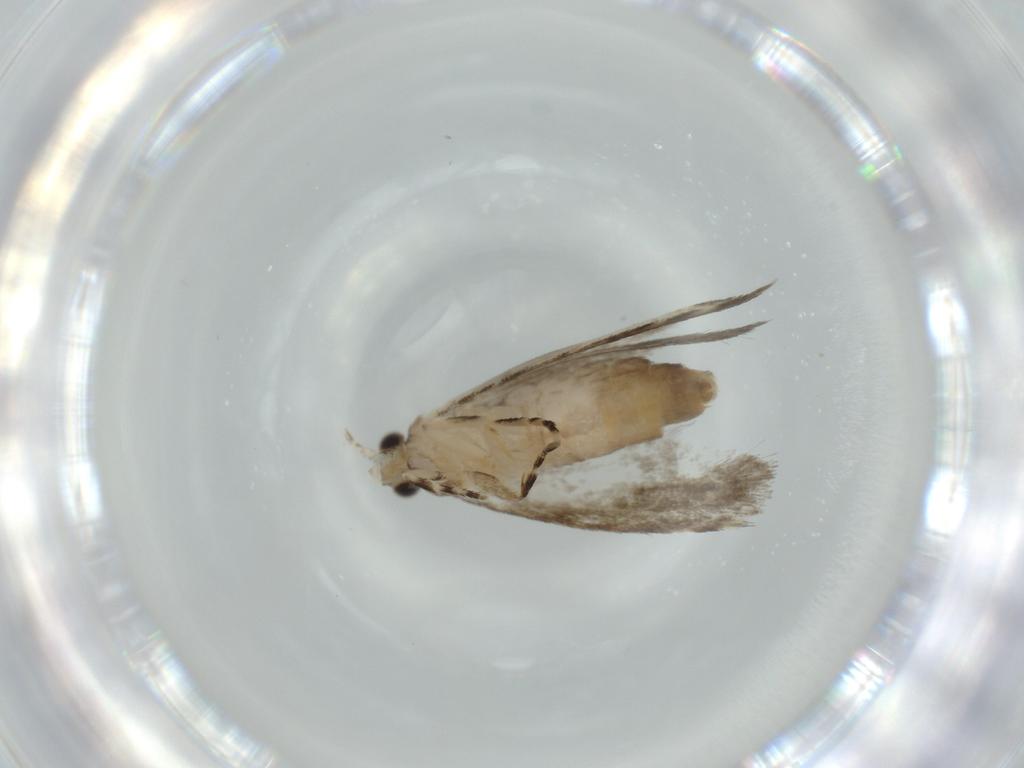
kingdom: Animalia
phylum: Arthropoda
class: Insecta
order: Lepidoptera
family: Tineidae
